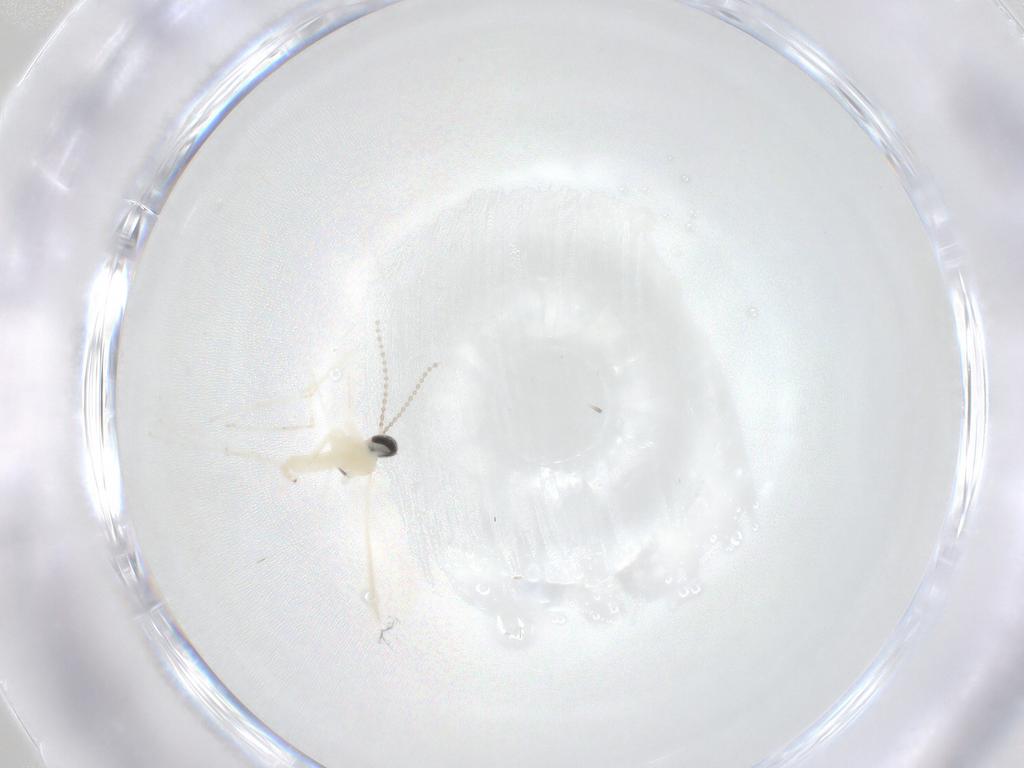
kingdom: Animalia
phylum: Arthropoda
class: Insecta
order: Diptera
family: Cecidomyiidae
